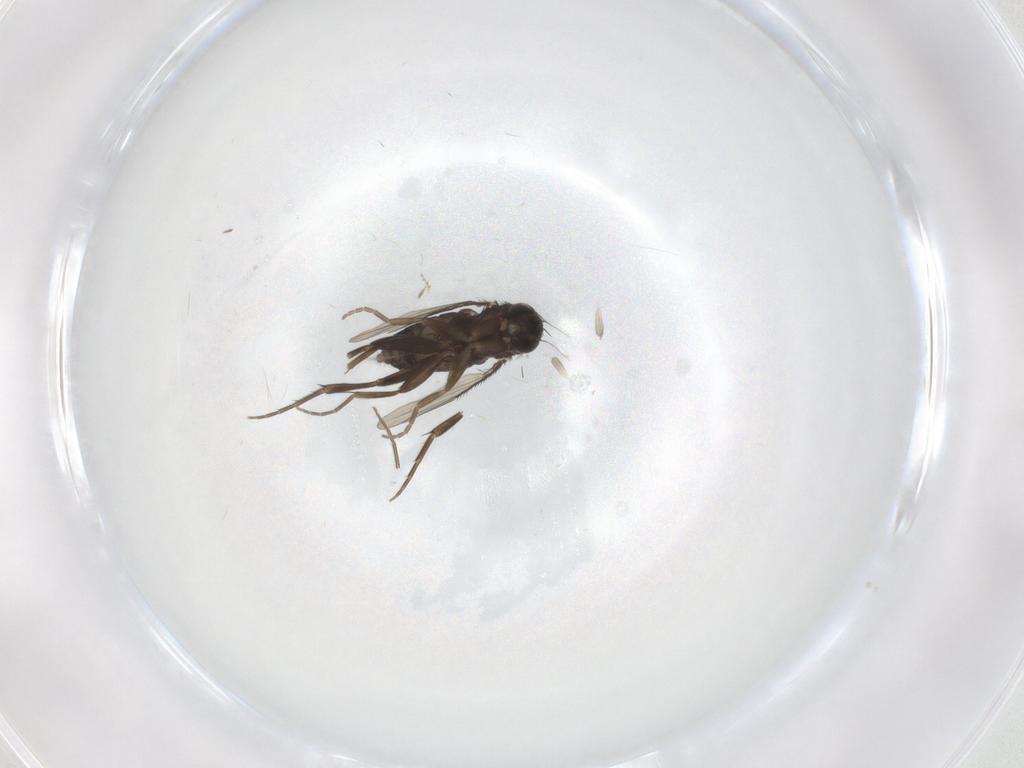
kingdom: Animalia
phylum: Arthropoda
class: Insecta
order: Diptera
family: Phoridae
